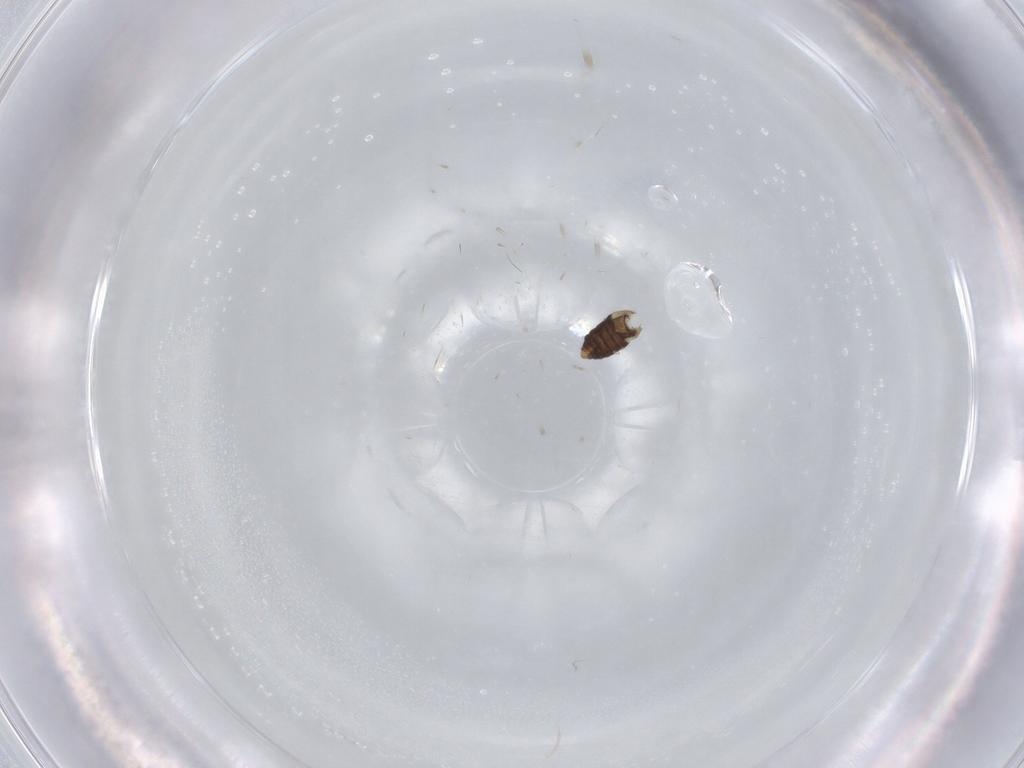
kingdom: Animalia
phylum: Arthropoda
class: Insecta
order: Diptera
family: Ceratopogonidae
